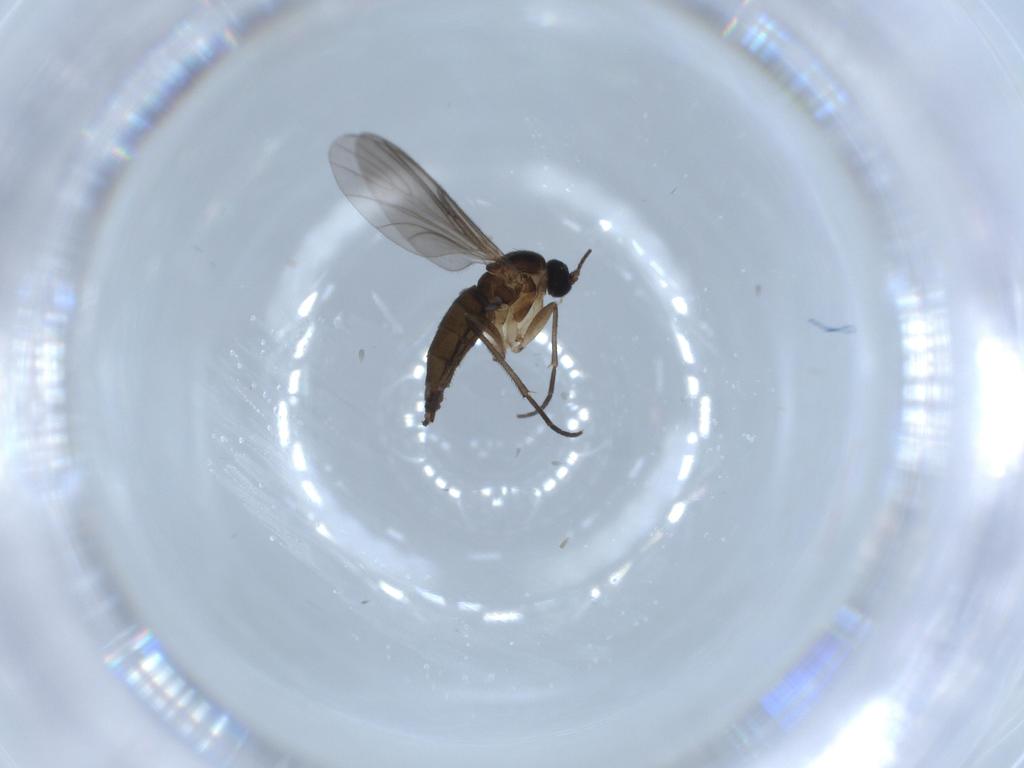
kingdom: Animalia
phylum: Arthropoda
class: Insecta
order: Diptera
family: Sciaridae
